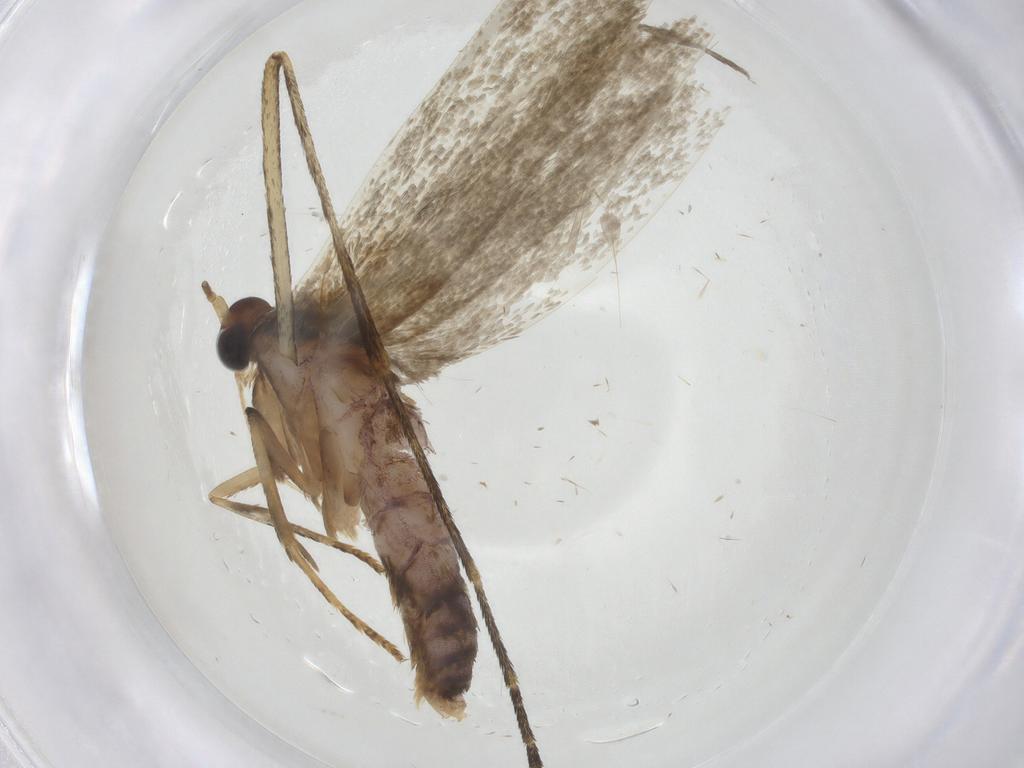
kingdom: Animalia
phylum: Arthropoda
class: Insecta
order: Lepidoptera
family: Blastobasidae
